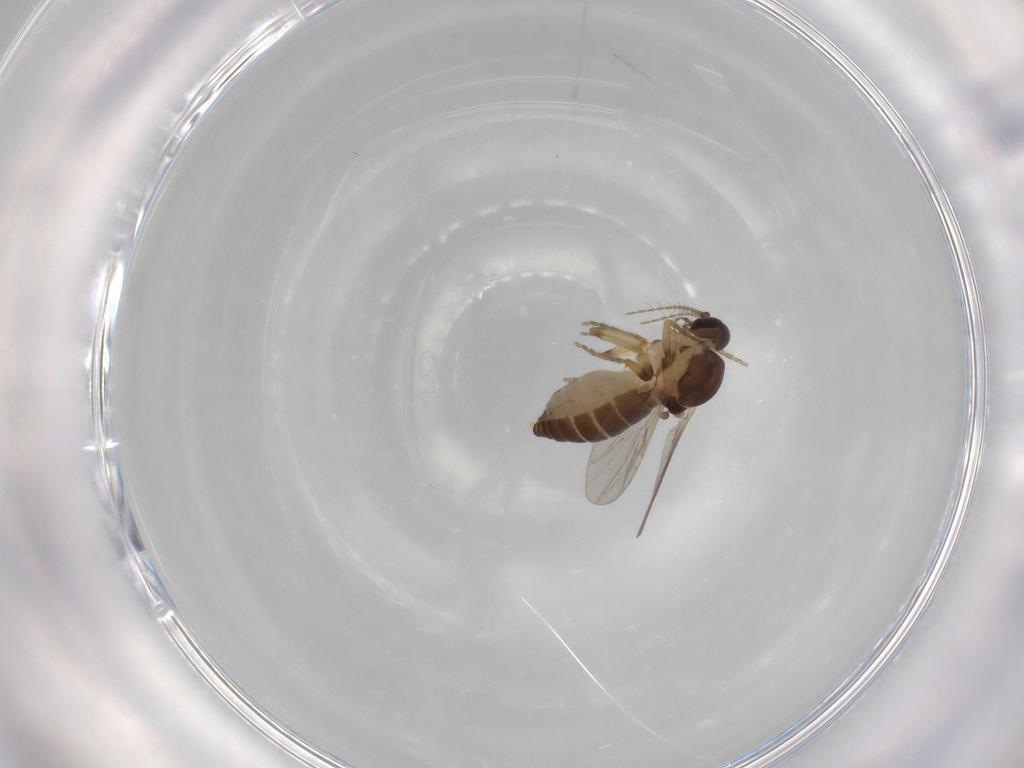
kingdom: Animalia
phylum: Arthropoda
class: Insecta
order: Diptera
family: Ceratopogonidae
